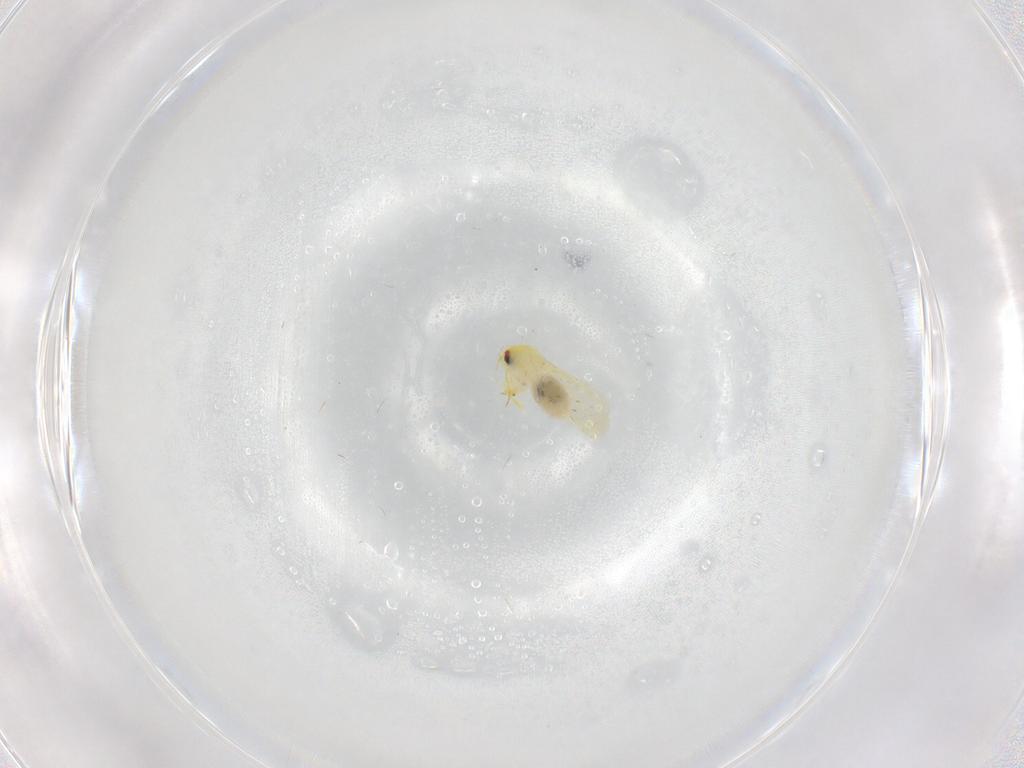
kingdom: Animalia
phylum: Arthropoda
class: Insecta
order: Hemiptera
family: Aleyrodidae
